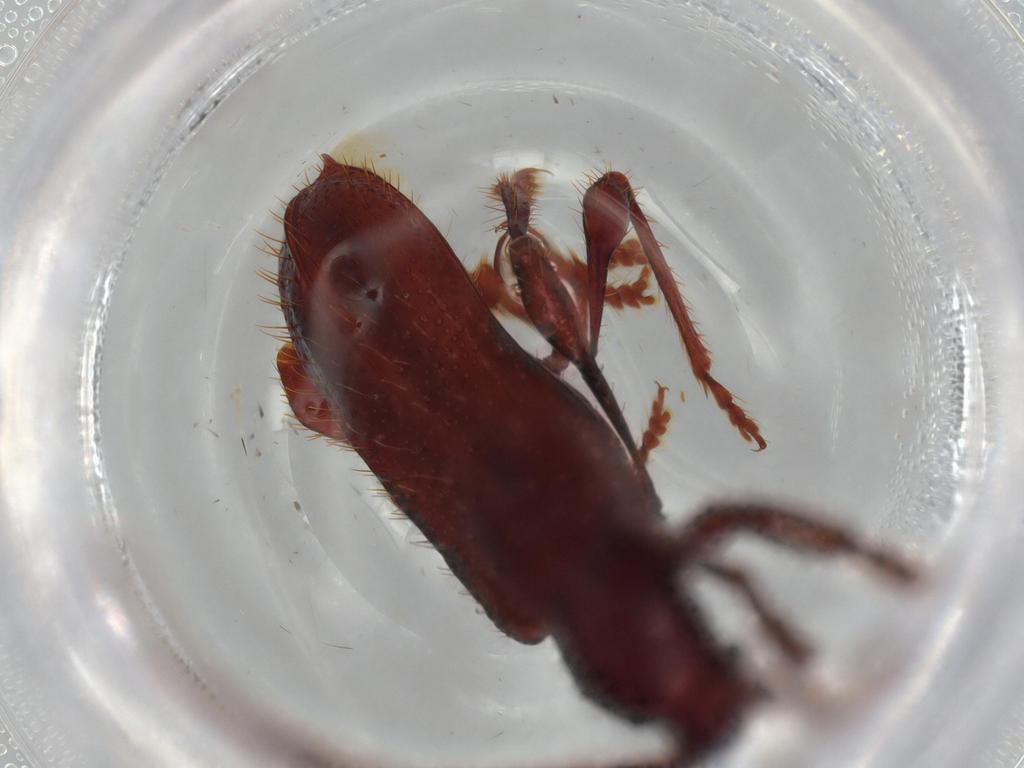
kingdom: Animalia
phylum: Arthropoda
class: Insecta
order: Coleoptera
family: Cerambycidae
